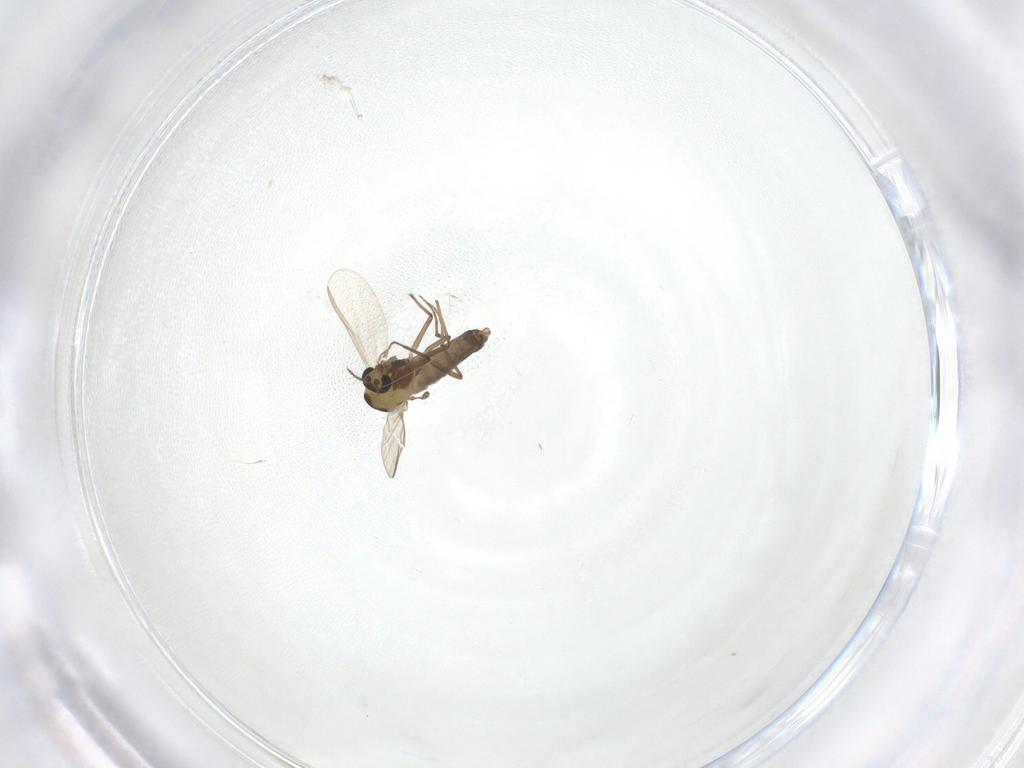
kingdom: Animalia
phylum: Arthropoda
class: Insecta
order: Diptera
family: Chironomidae
